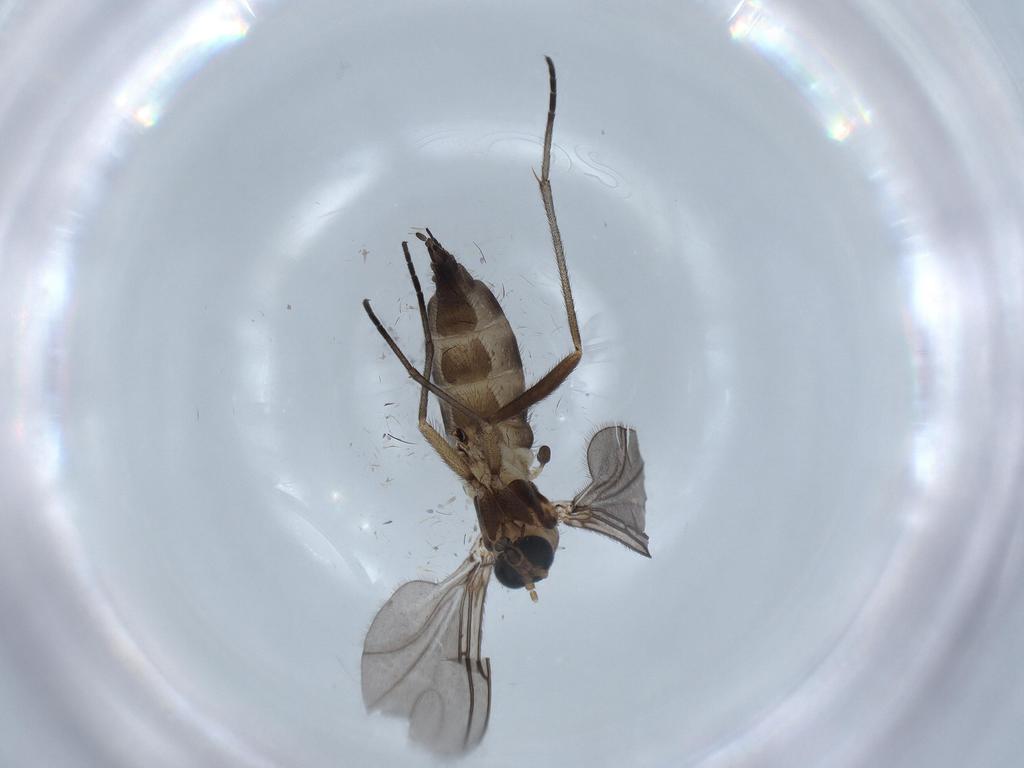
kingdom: Animalia
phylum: Arthropoda
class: Insecta
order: Diptera
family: Sciaridae
